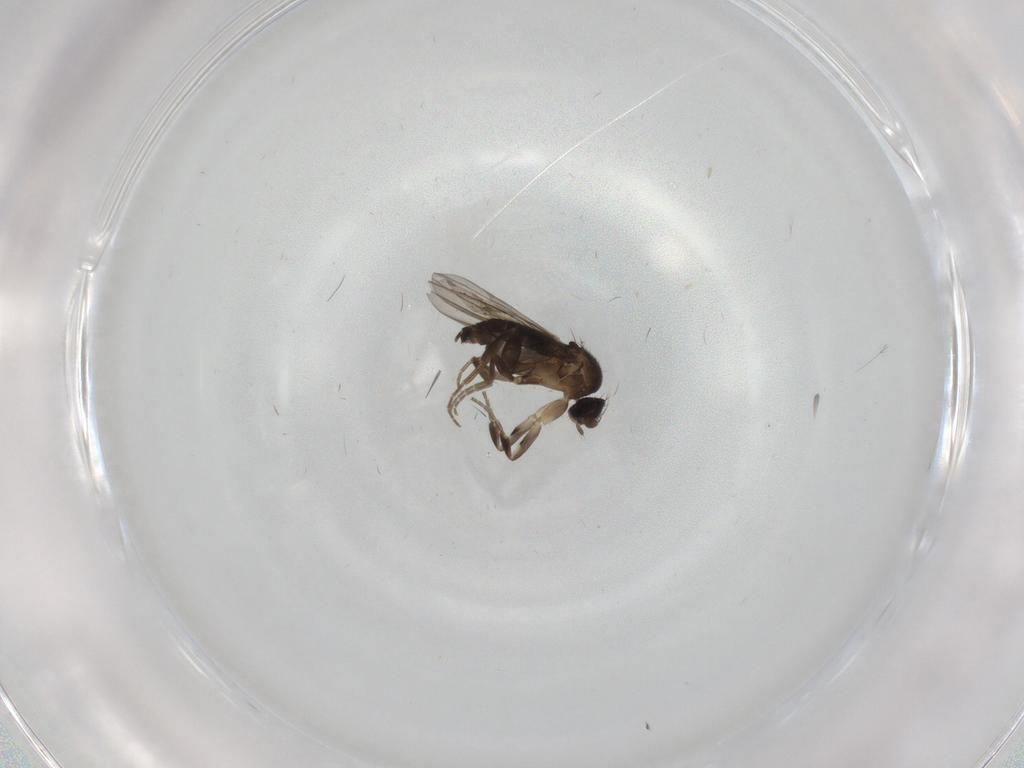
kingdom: Animalia
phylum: Arthropoda
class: Insecta
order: Diptera
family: Phoridae
